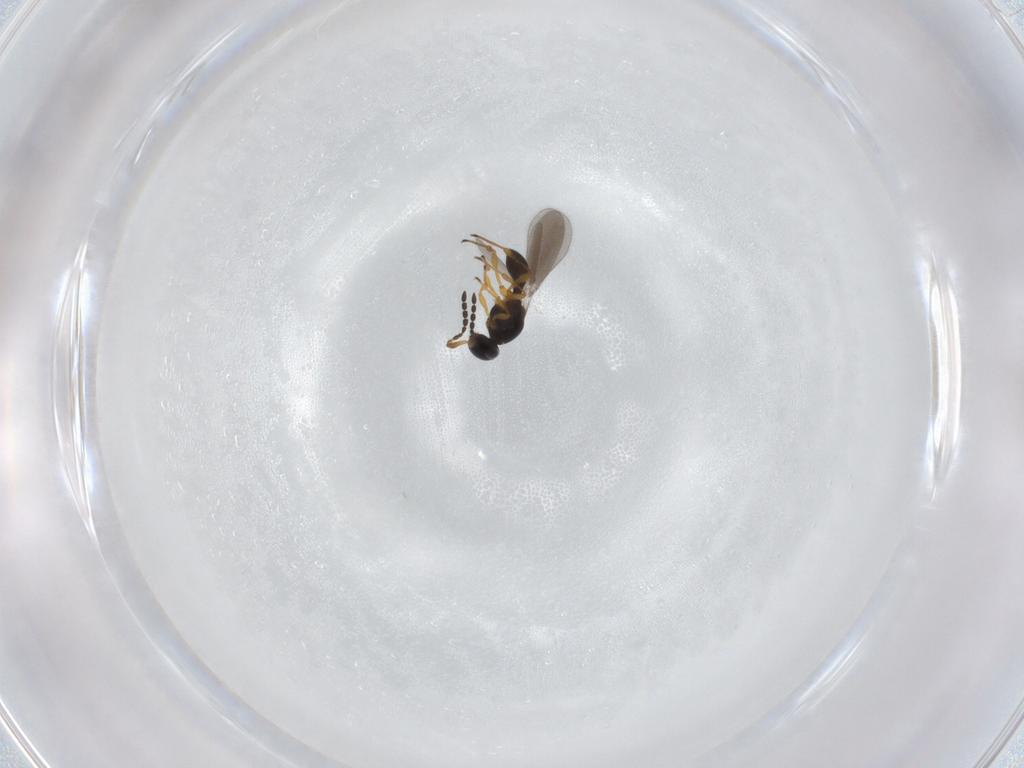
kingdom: Animalia
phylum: Arthropoda
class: Insecta
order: Hymenoptera
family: Platygastridae
